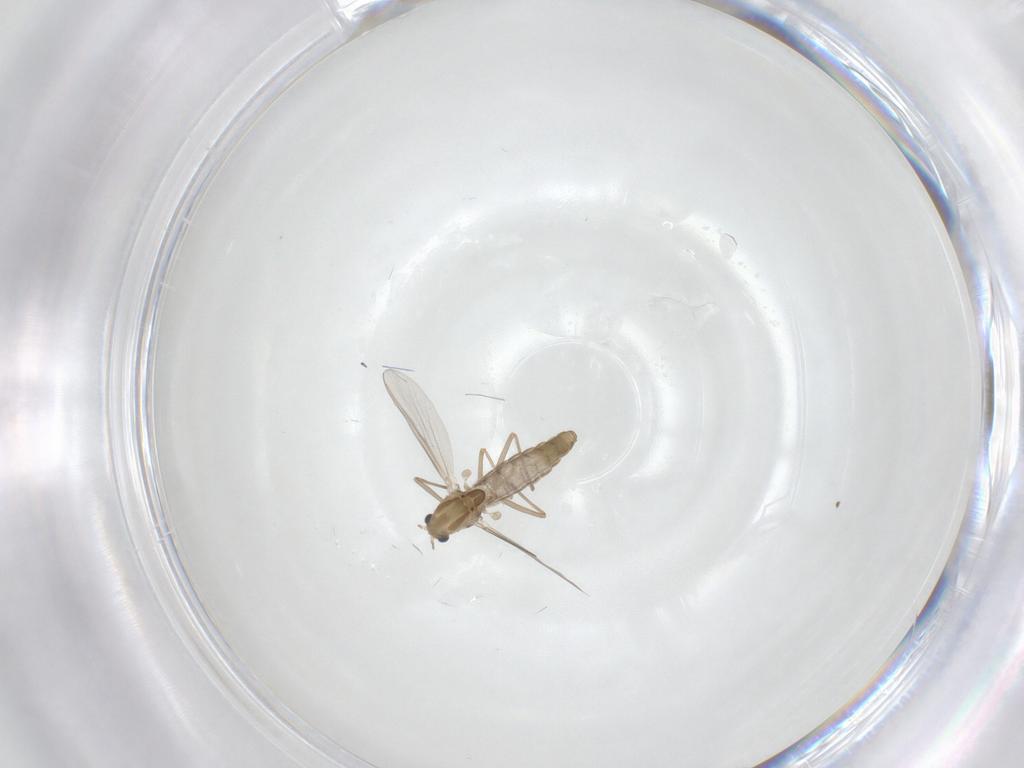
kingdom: Animalia
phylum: Arthropoda
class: Insecta
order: Diptera
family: Chironomidae
